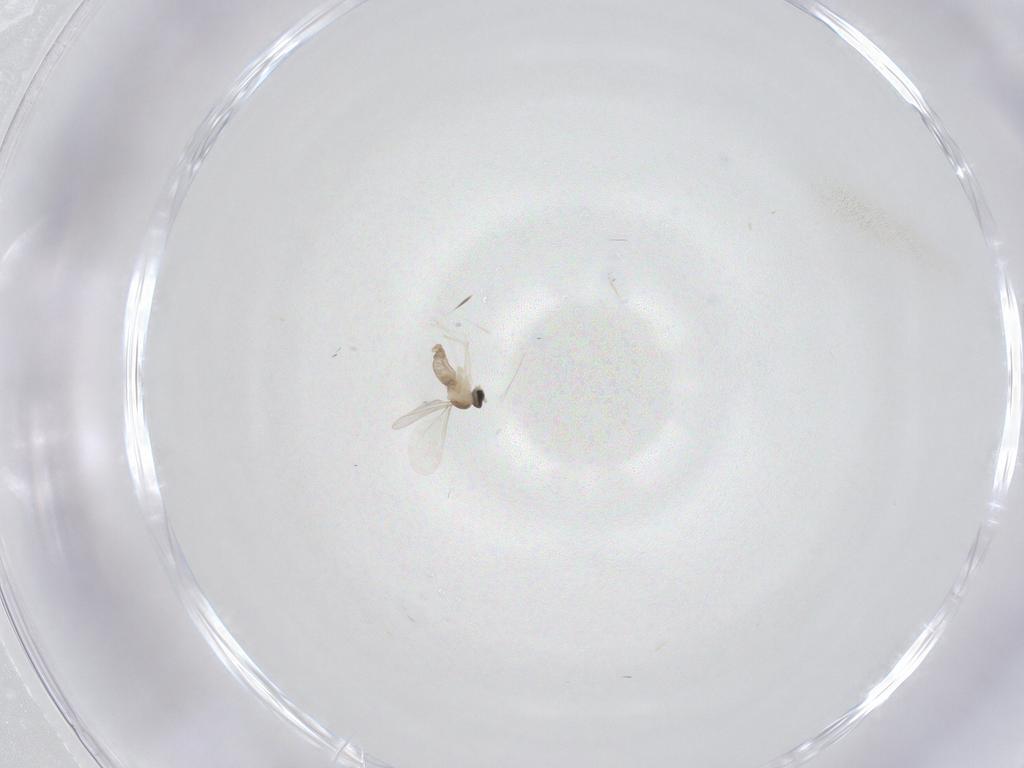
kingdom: Animalia
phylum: Arthropoda
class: Insecta
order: Diptera
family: Cecidomyiidae
